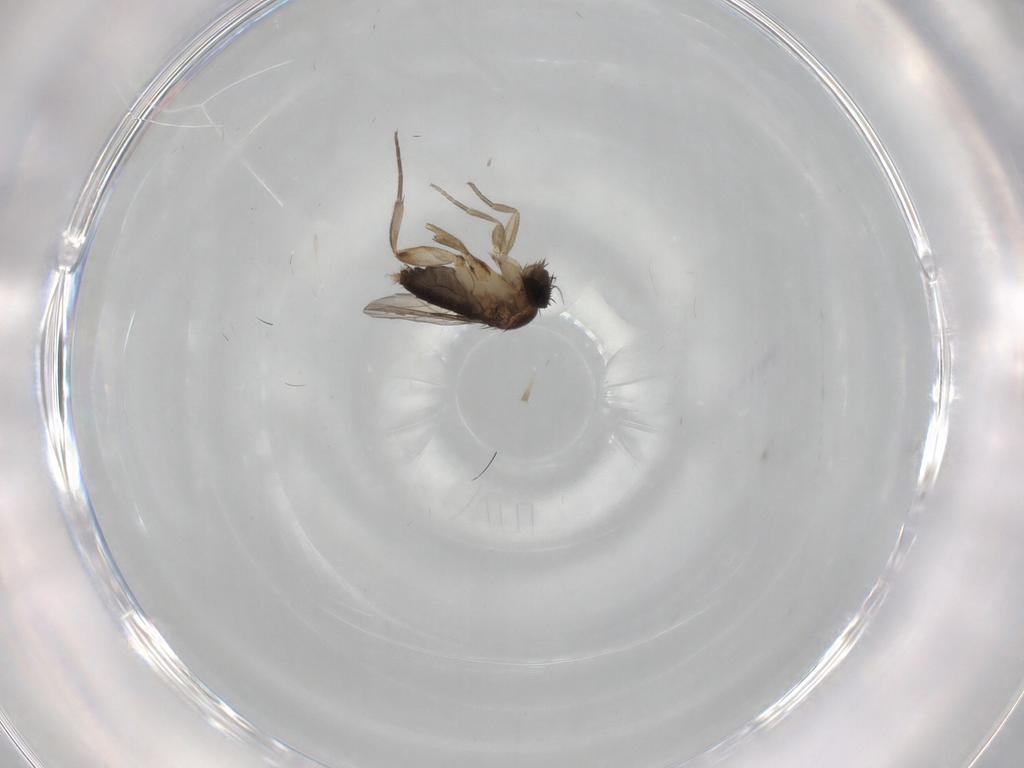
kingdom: Animalia
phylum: Arthropoda
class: Insecta
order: Diptera
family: Phoridae
